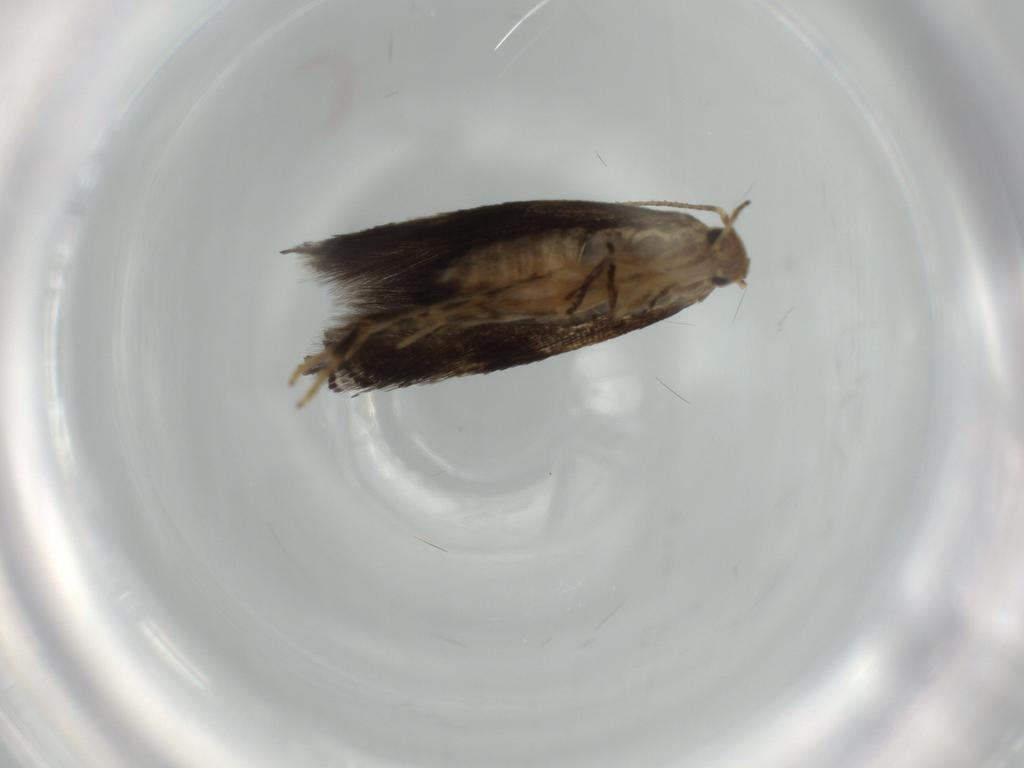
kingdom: Animalia
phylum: Arthropoda
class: Insecta
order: Lepidoptera
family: Gelechiidae
